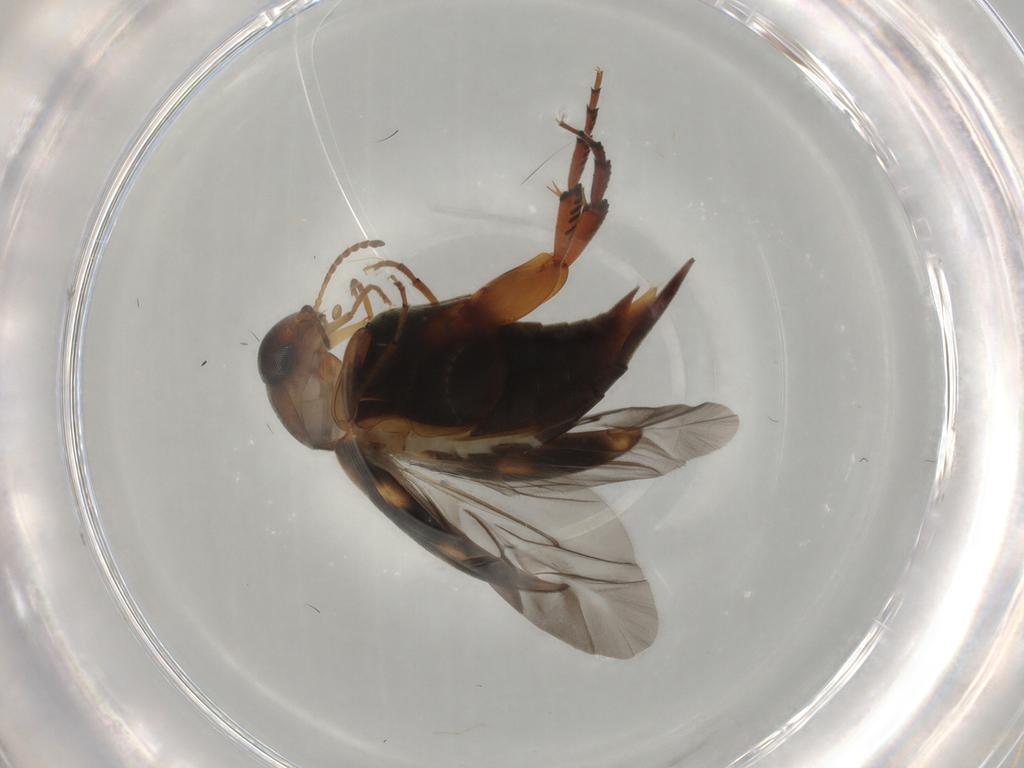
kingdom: Animalia
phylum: Arthropoda
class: Insecta
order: Coleoptera
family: Mordellidae
